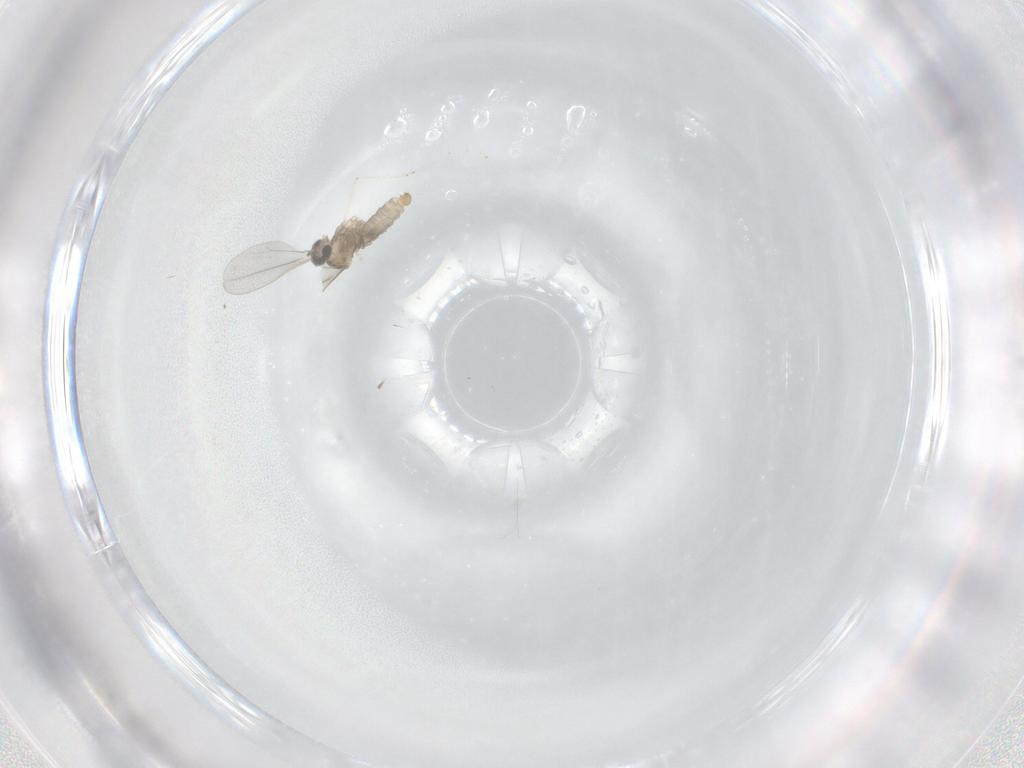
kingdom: Animalia
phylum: Arthropoda
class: Insecta
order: Diptera
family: Cecidomyiidae
